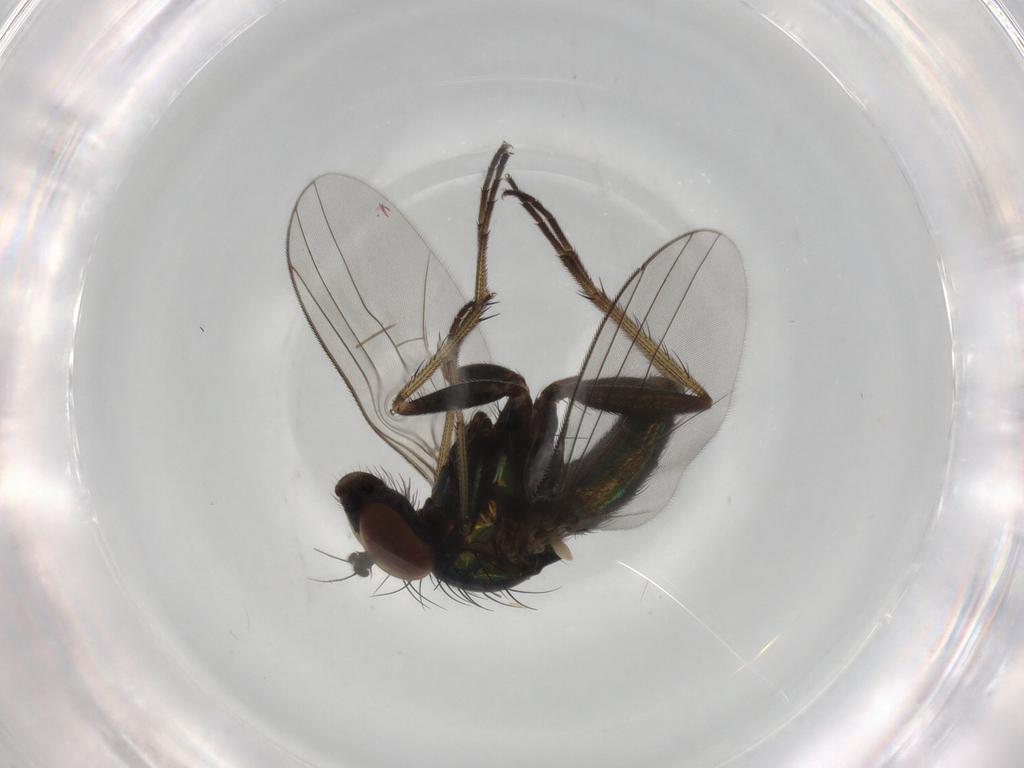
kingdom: Animalia
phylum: Arthropoda
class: Insecta
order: Diptera
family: Dolichopodidae
